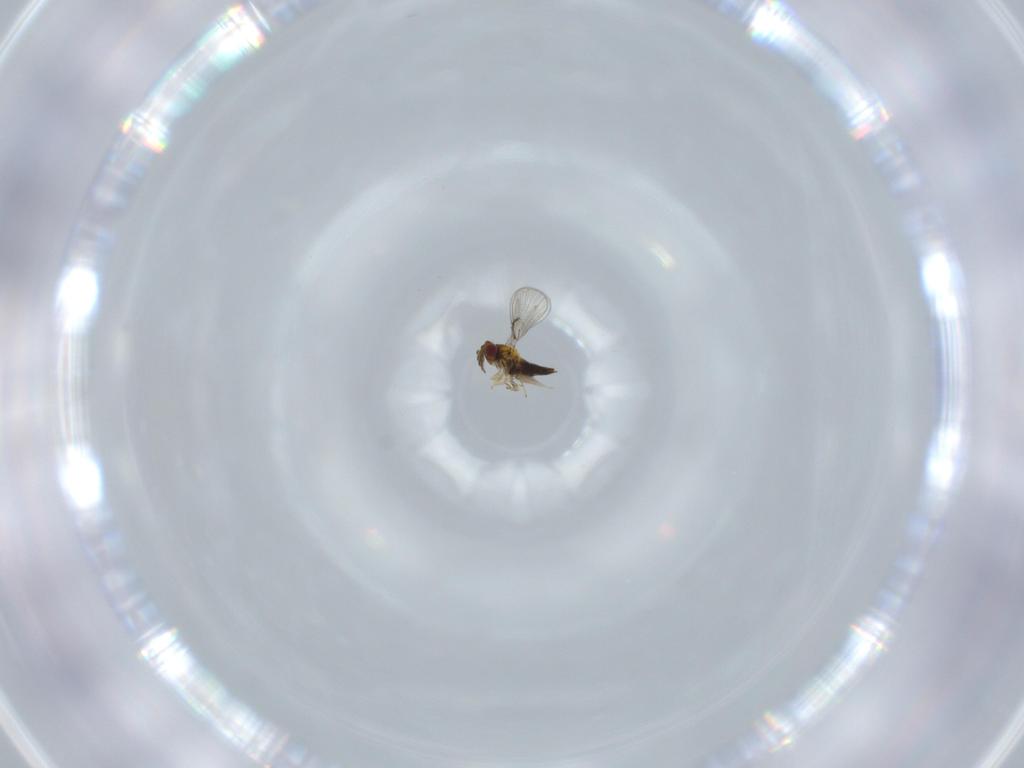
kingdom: Animalia
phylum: Arthropoda
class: Insecta
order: Hymenoptera
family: Trichogrammatidae
